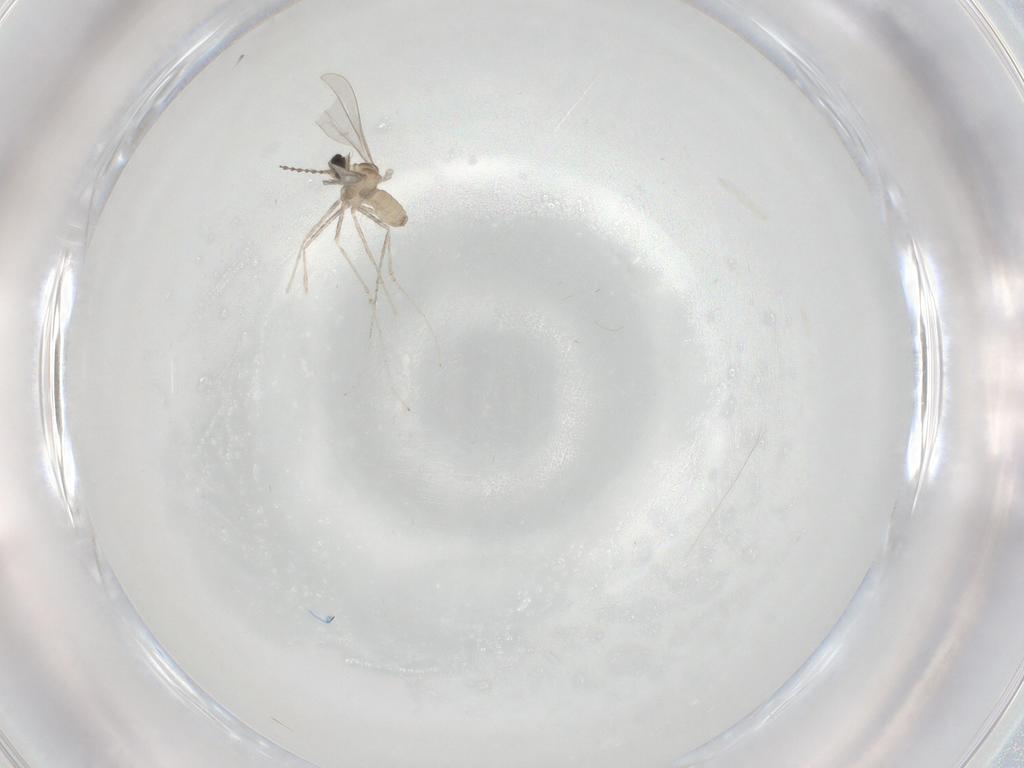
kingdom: Animalia
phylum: Arthropoda
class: Insecta
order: Diptera
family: Cecidomyiidae
